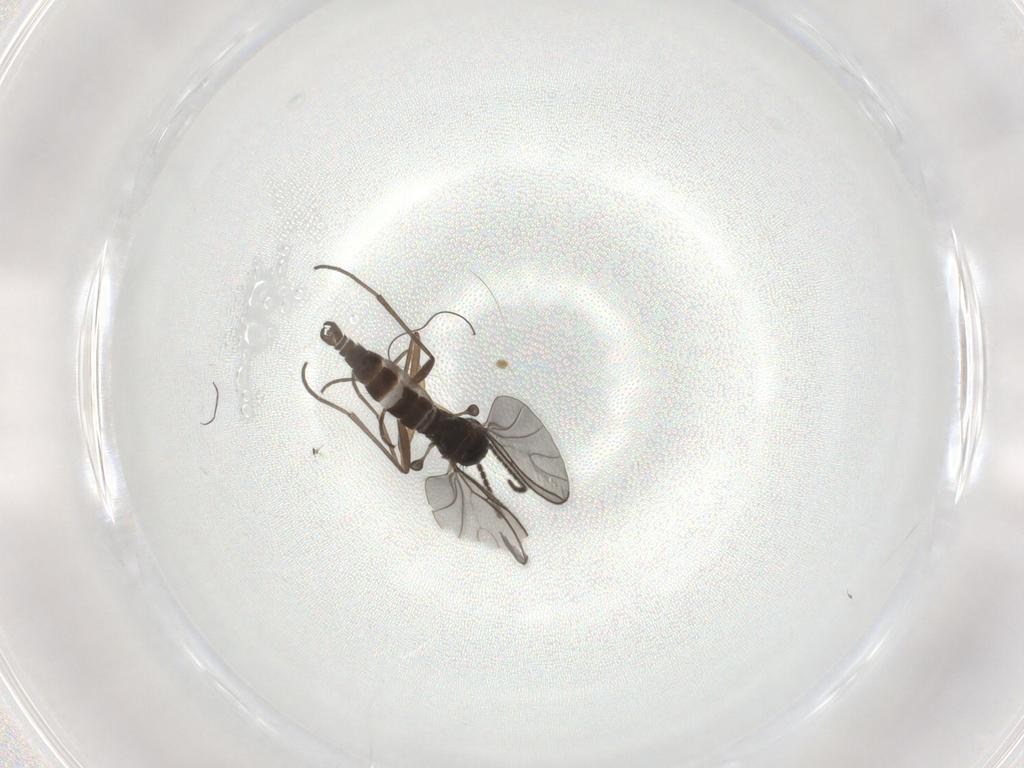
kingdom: Animalia
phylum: Arthropoda
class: Insecta
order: Diptera
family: Sciaridae
